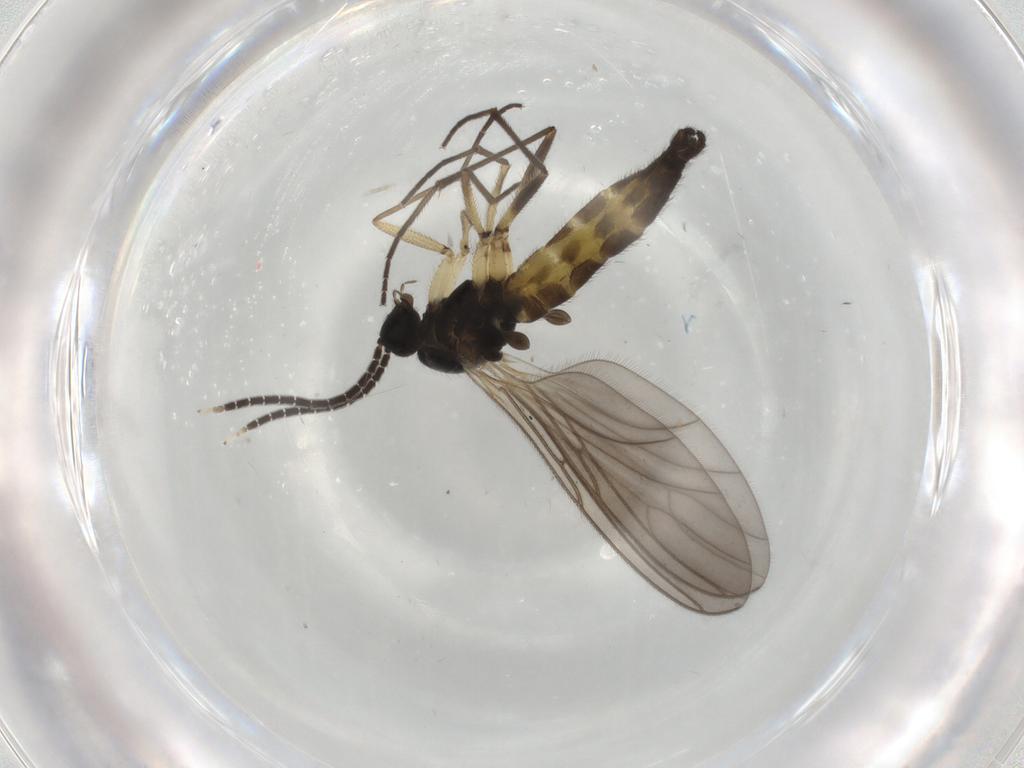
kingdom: Animalia
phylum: Arthropoda
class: Insecta
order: Diptera
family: Sciaridae
